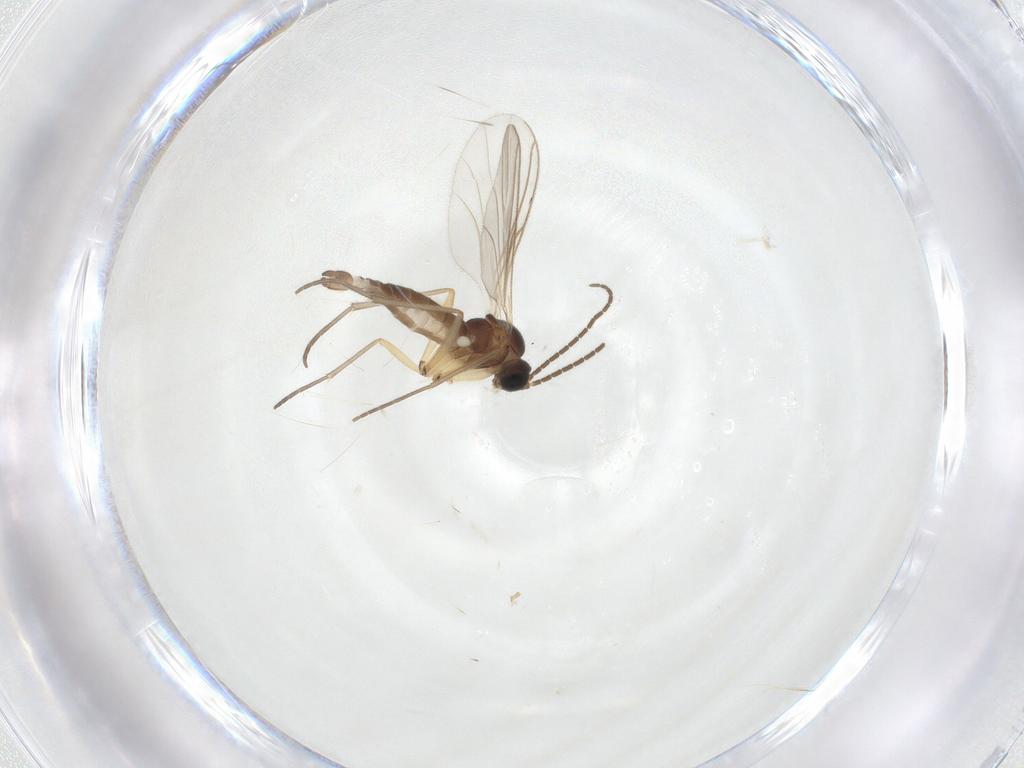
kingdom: Animalia
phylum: Arthropoda
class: Insecta
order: Diptera
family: Sciaridae
